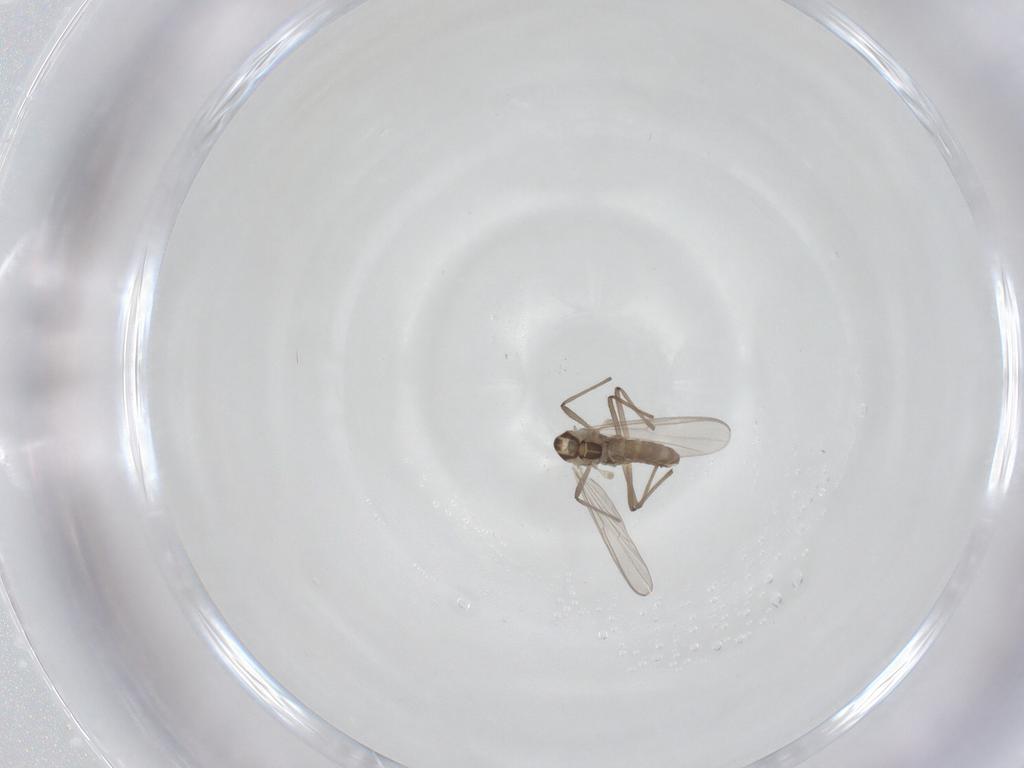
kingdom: Animalia
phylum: Arthropoda
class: Insecta
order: Diptera
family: Chironomidae
